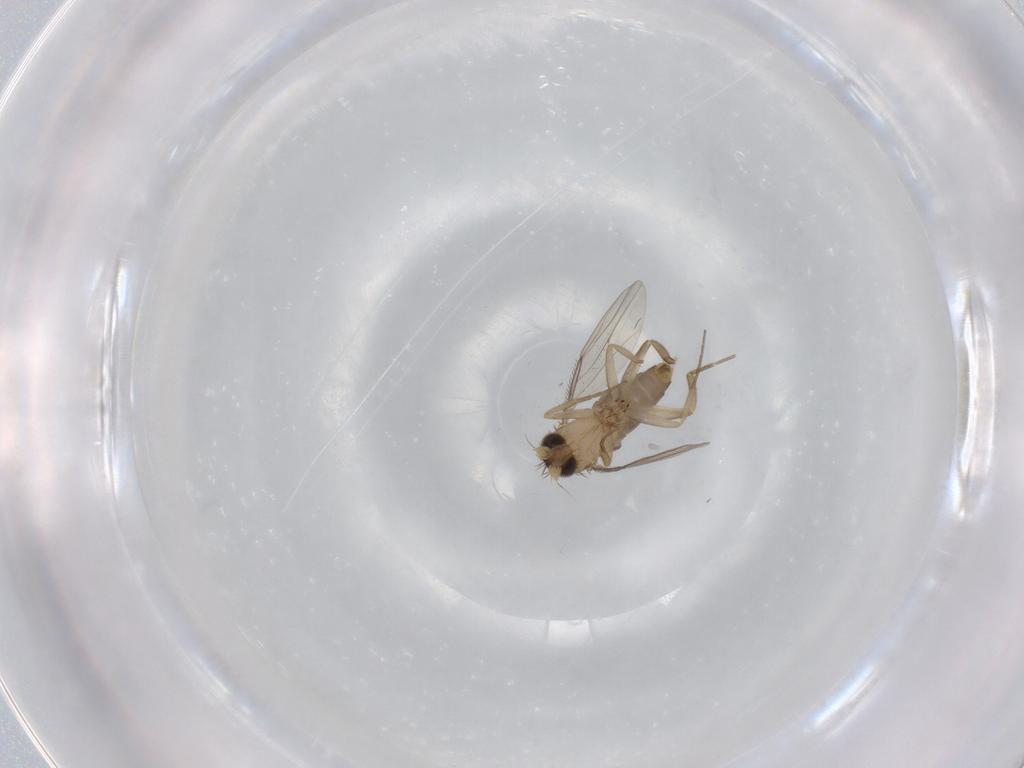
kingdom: Animalia
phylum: Arthropoda
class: Insecta
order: Diptera
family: Phoridae
